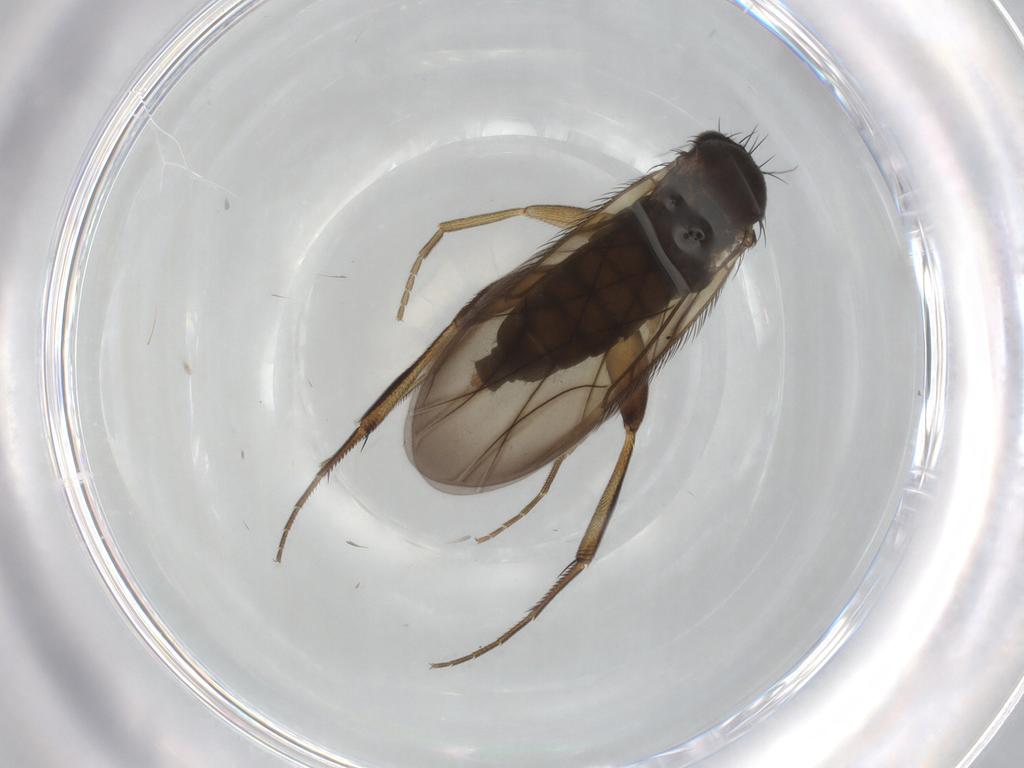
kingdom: Animalia
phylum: Arthropoda
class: Insecta
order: Diptera
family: Phoridae
